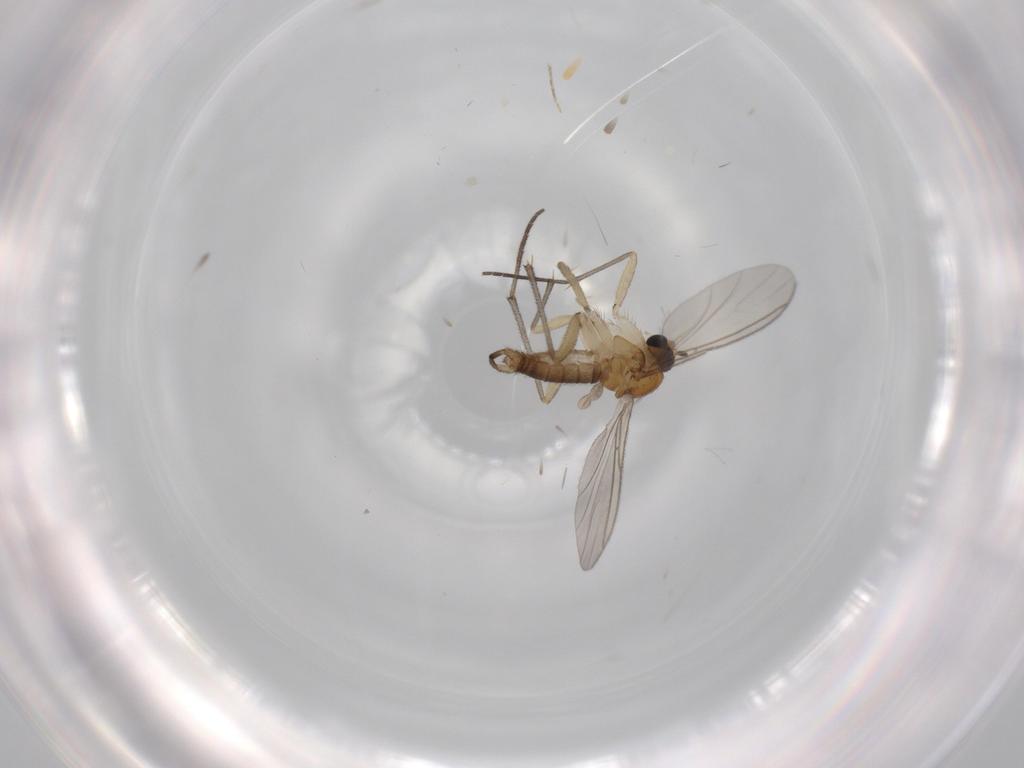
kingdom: Animalia
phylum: Arthropoda
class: Insecta
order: Diptera
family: Sciaridae
